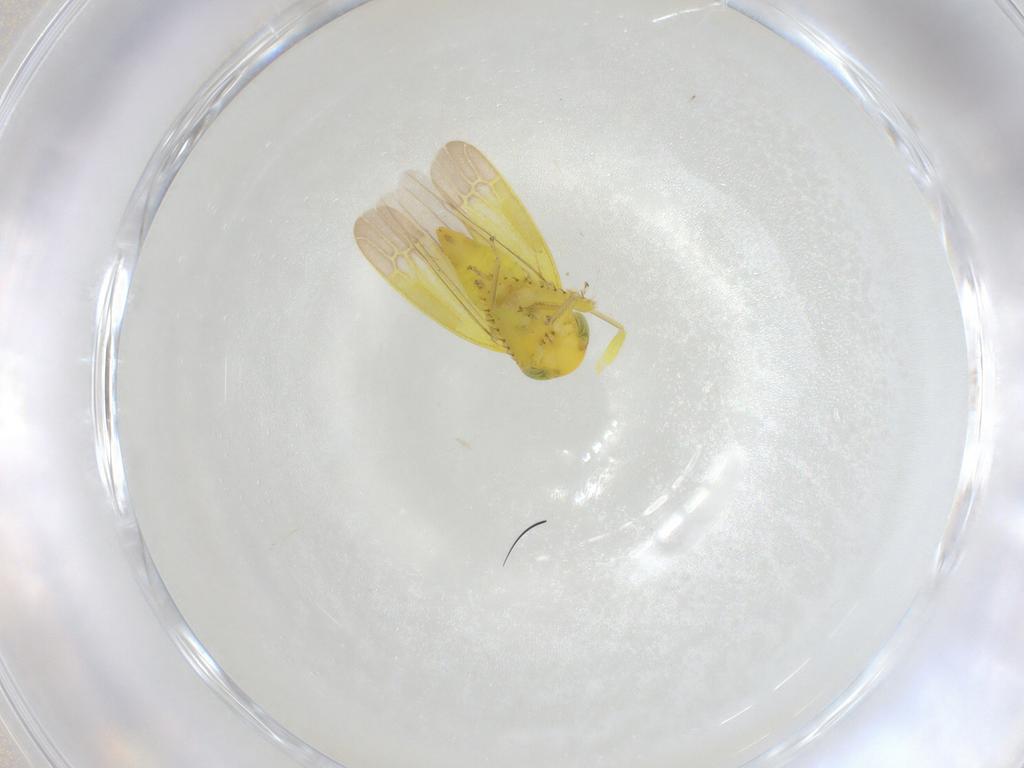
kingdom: Animalia
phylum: Arthropoda
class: Insecta
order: Hemiptera
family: Cicadellidae
